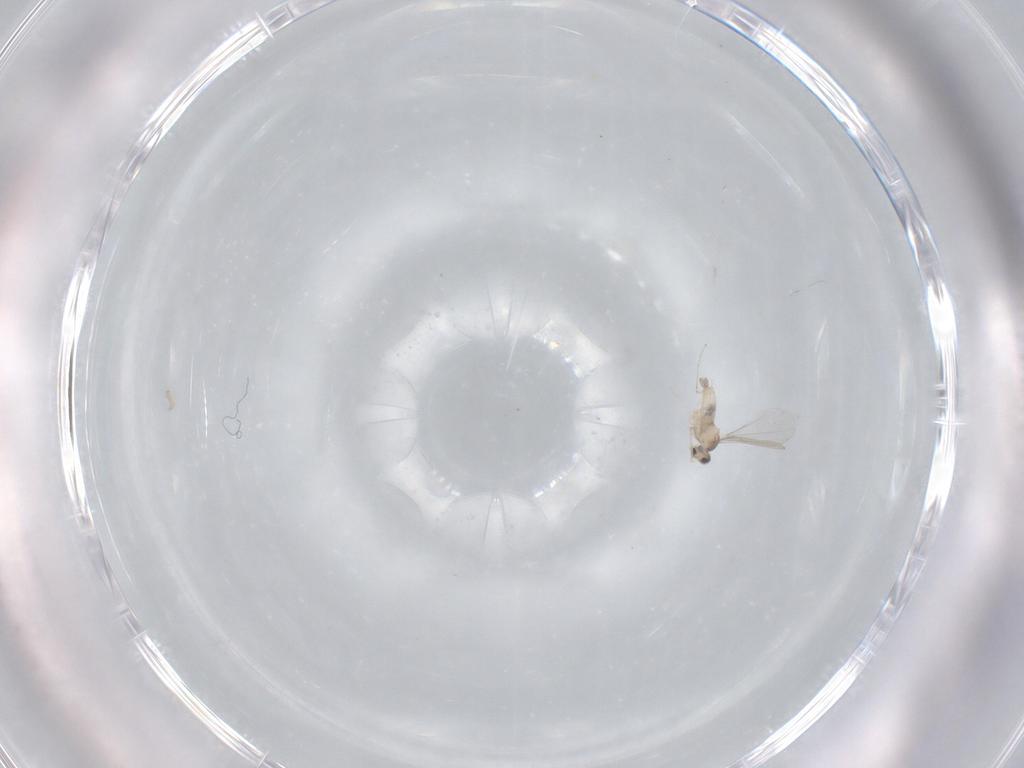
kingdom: Animalia
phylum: Arthropoda
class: Insecta
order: Diptera
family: Cecidomyiidae
